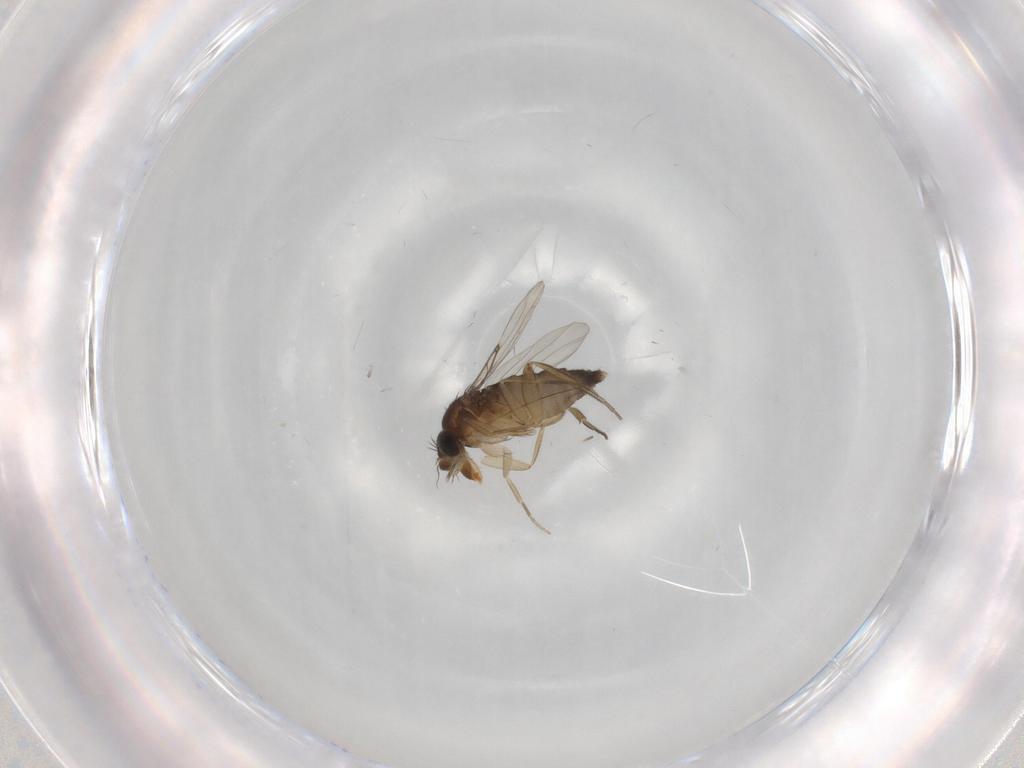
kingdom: Animalia
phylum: Arthropoda
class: Insecta
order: Diptera
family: Phoridae
